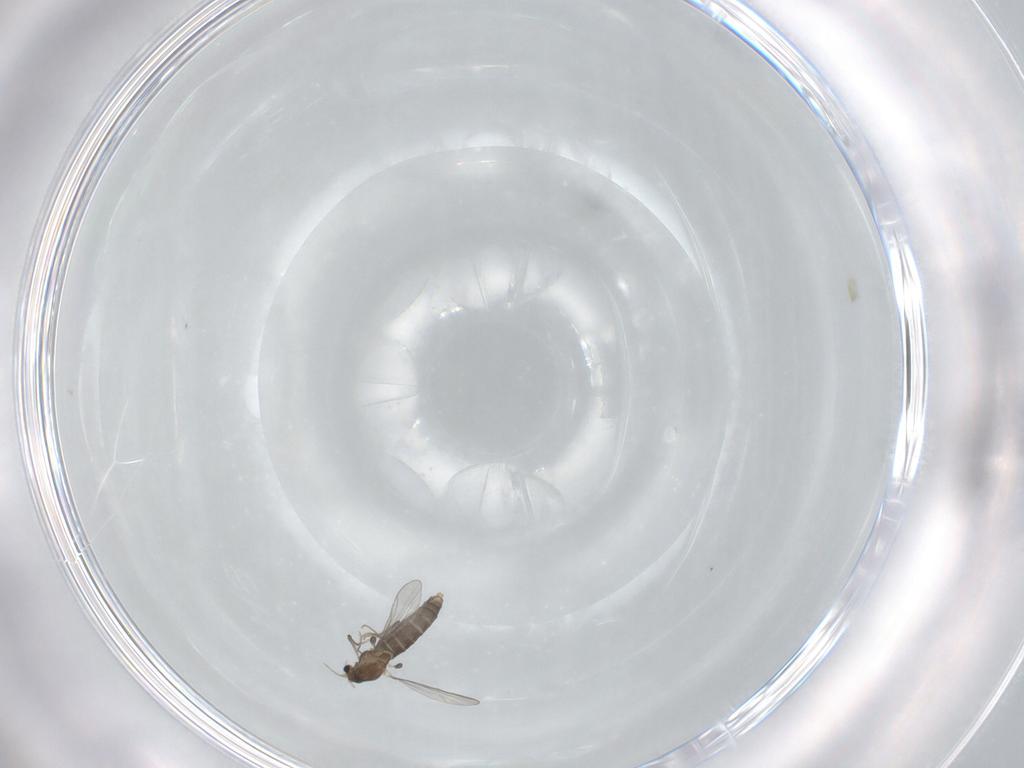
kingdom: Animalia
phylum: Arthropoda
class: Insecta
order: Diptera
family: Chironomidae
